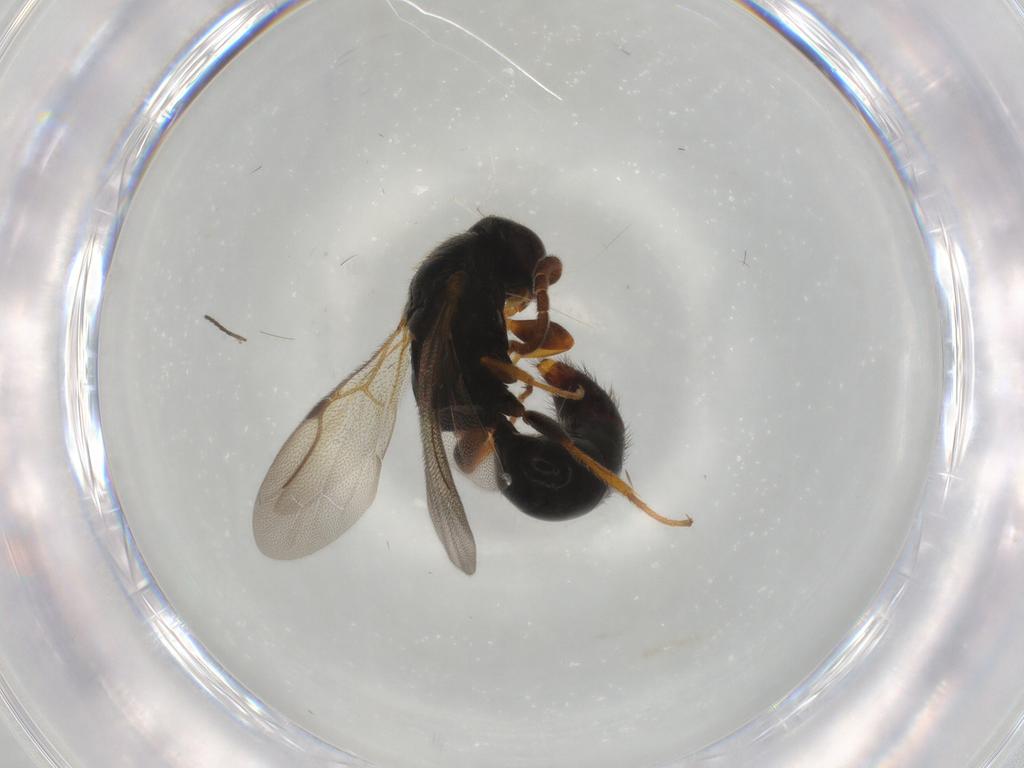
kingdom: Animalia
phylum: Arthropoda
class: Insecta
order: Hymenoptera
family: Bethylidae
